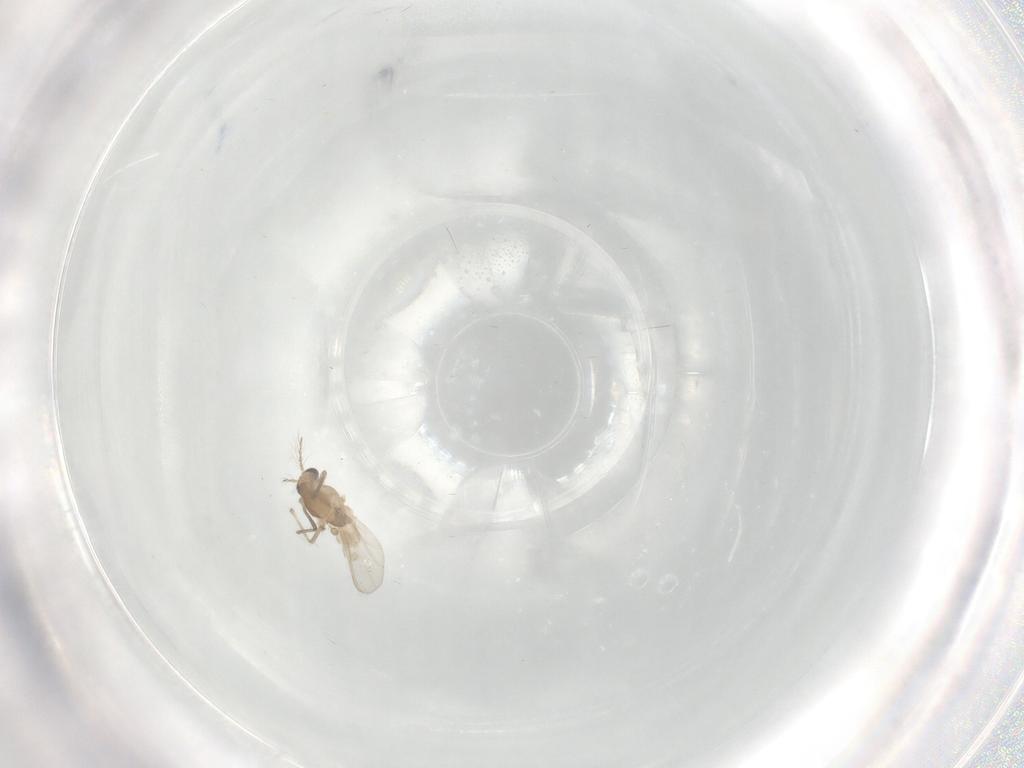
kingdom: Animalia
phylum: Arthropoda
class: Insecta
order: Diptera
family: Chironomidae
